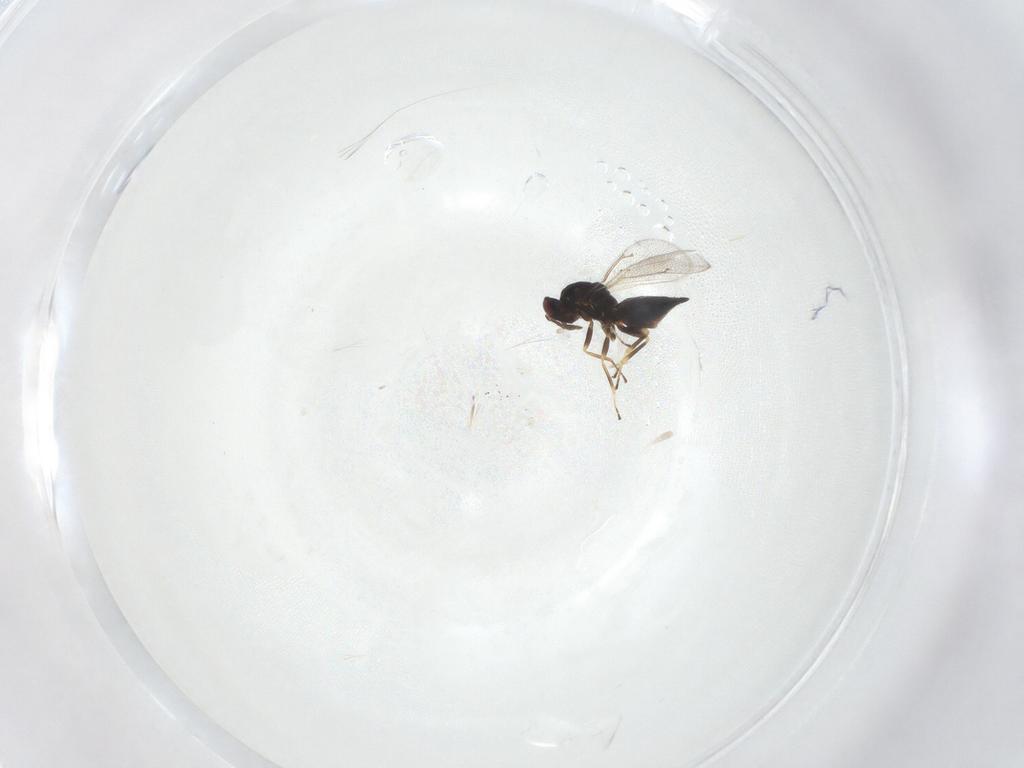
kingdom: Animalia
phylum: Arthropoda
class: Insecta
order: Hymenoptera
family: Eulophidae
